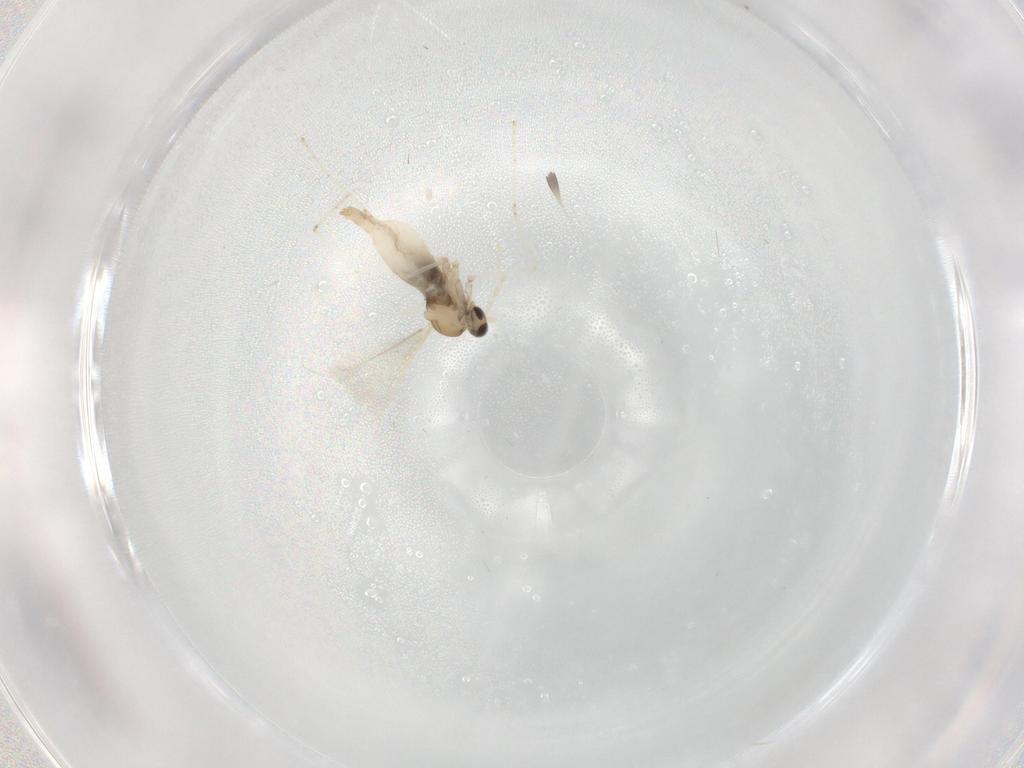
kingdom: Animalia
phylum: Arthropoda
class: Insecta
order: Diptera
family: Cecidomyiidae
